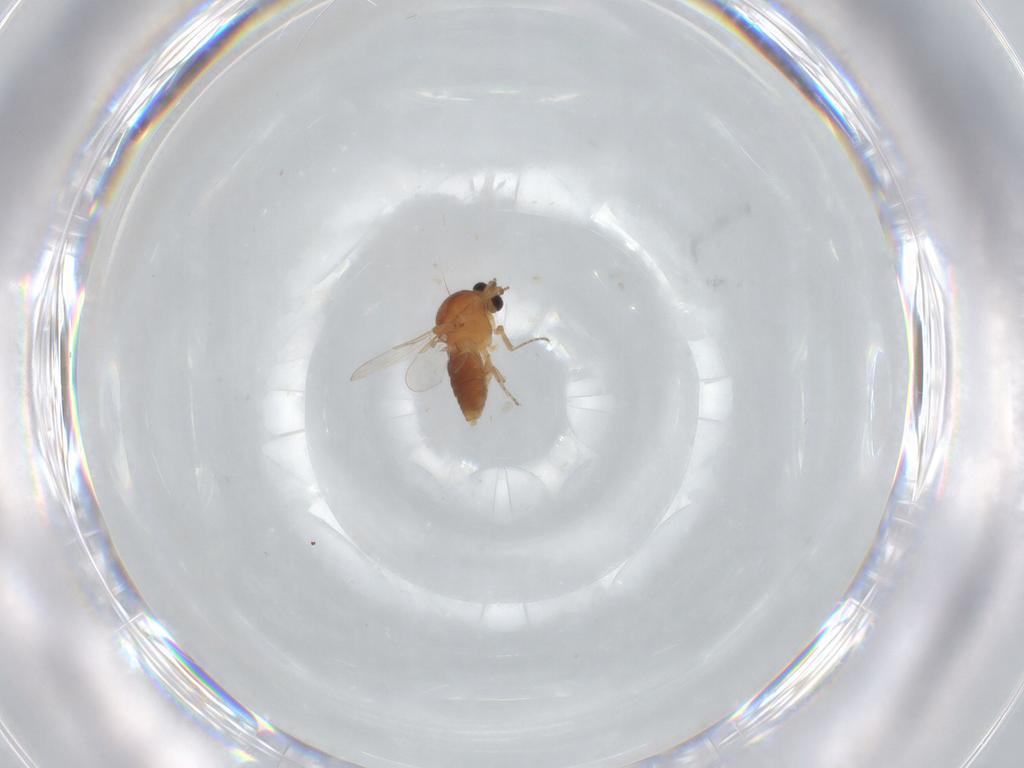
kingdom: Animalia
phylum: Arthropoda
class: Insecta
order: Diptera
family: Ceratopogonidae
